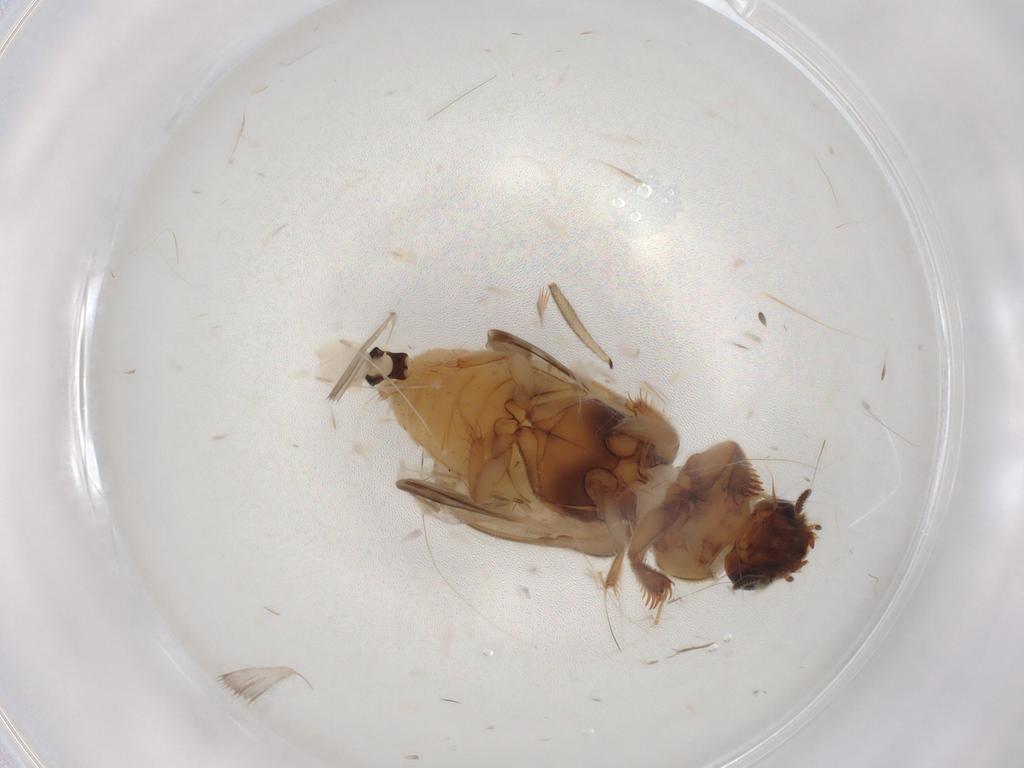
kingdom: Animalia
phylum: Arthropoda
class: Insecta
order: Coleoptera
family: Heteroceridae
